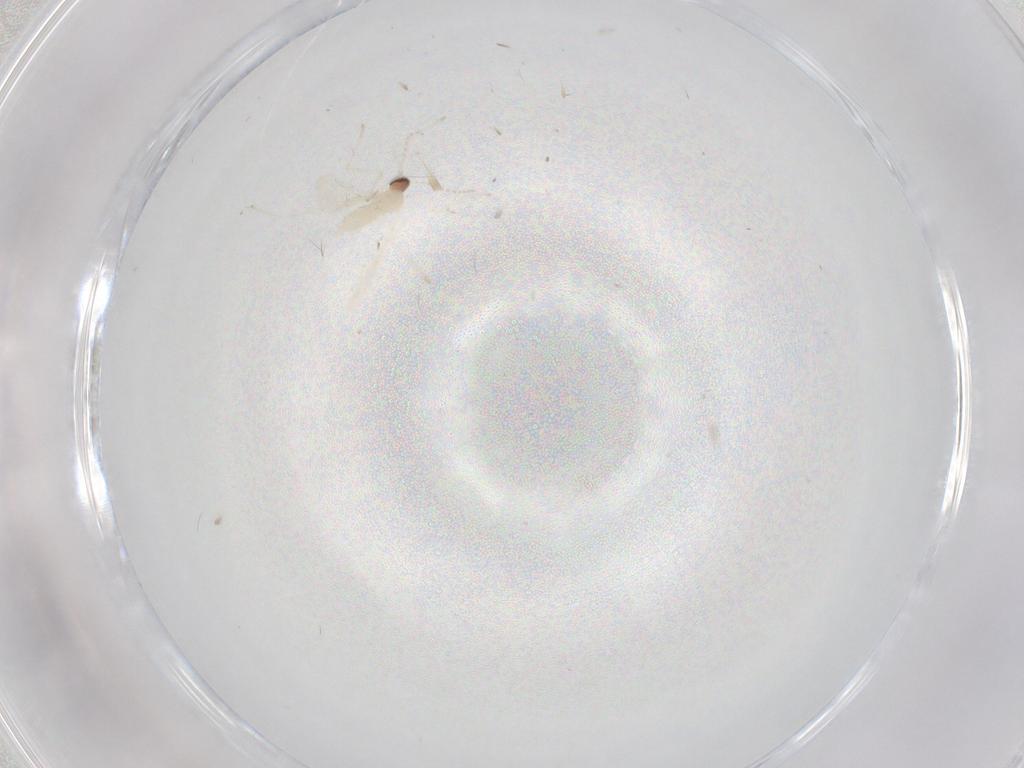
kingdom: Animalia
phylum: Arthropoda
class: Insecta
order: Diptera
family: Cecidomyiidae
